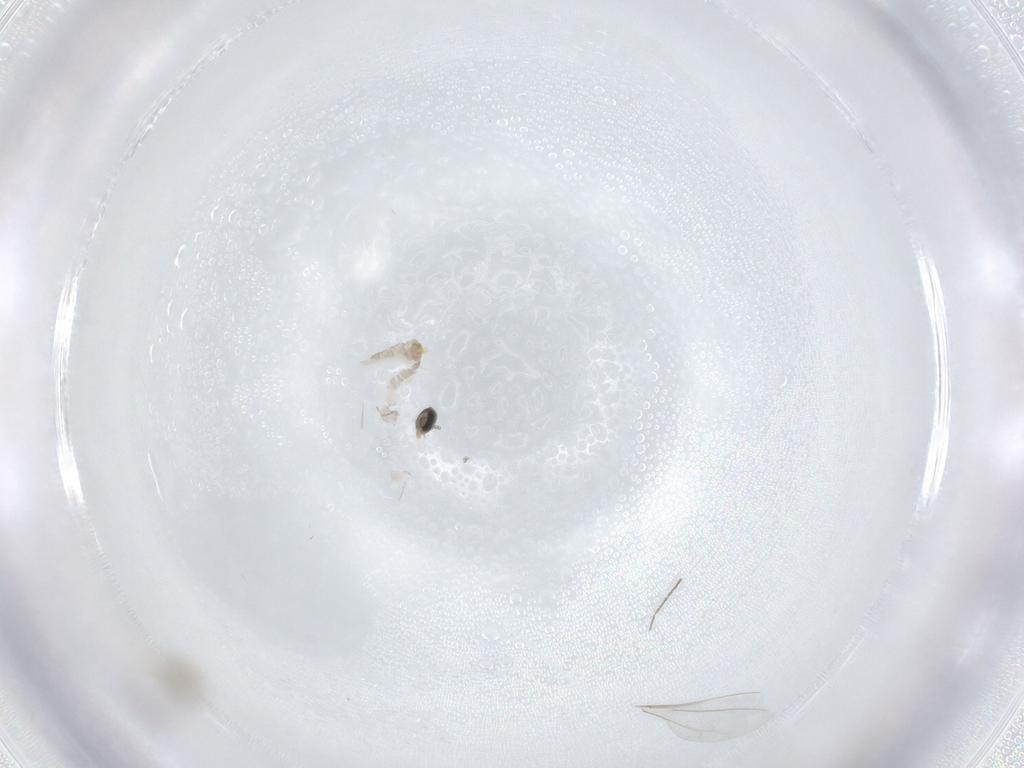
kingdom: Animalia
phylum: Arthropoda
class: Insecta
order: Diptera
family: Cecidomyiidae
